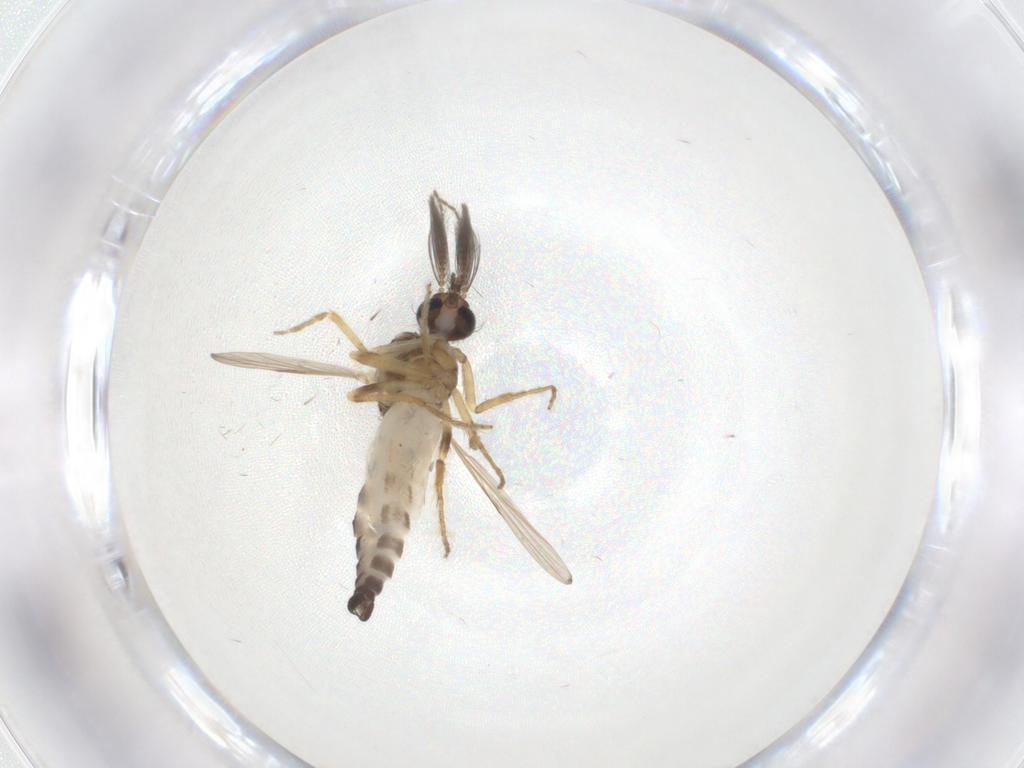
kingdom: Animalia
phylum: Arthropoda
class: Insecta
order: Diptera
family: Ceratopogonidae
